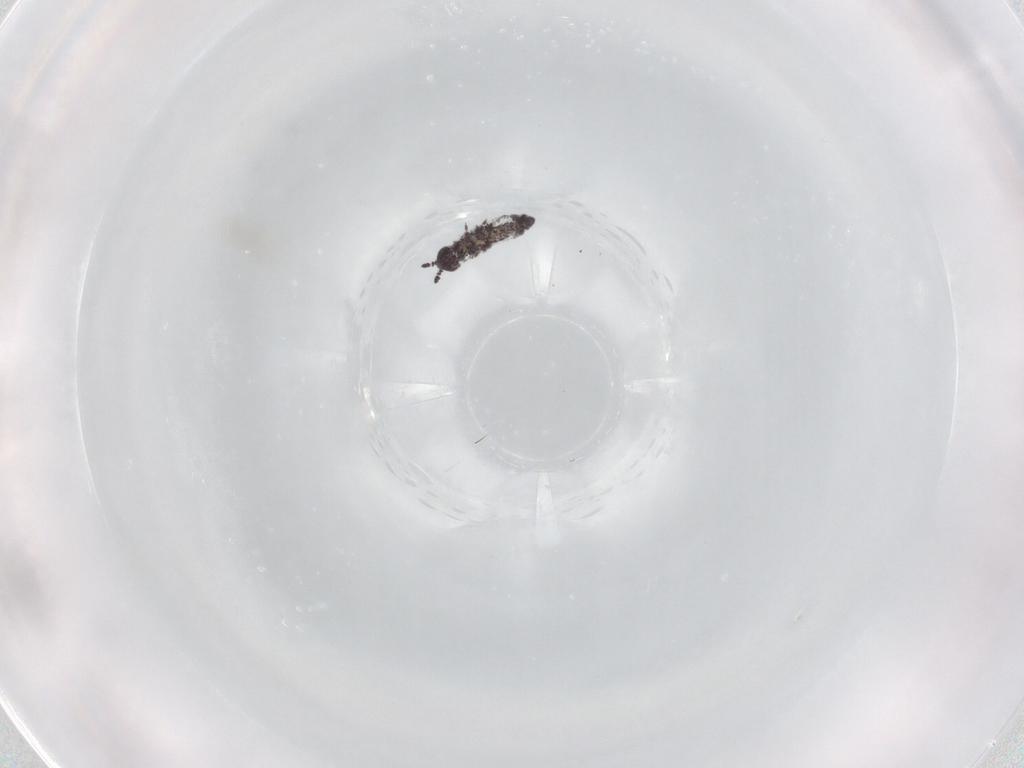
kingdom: Animalia
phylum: Arthropoda
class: Collembola
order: Poduromorpha
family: Hypogastruridae
